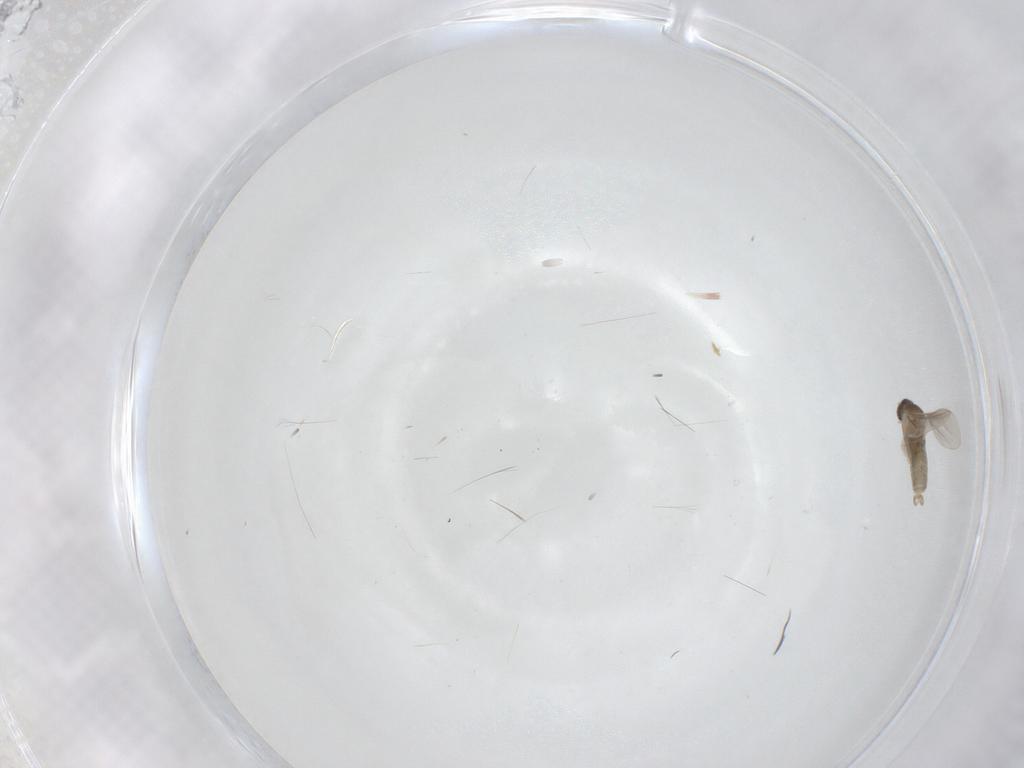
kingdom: Animalia
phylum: Arthropoda
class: Insecta
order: Diptera
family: Cecidomyiidae
